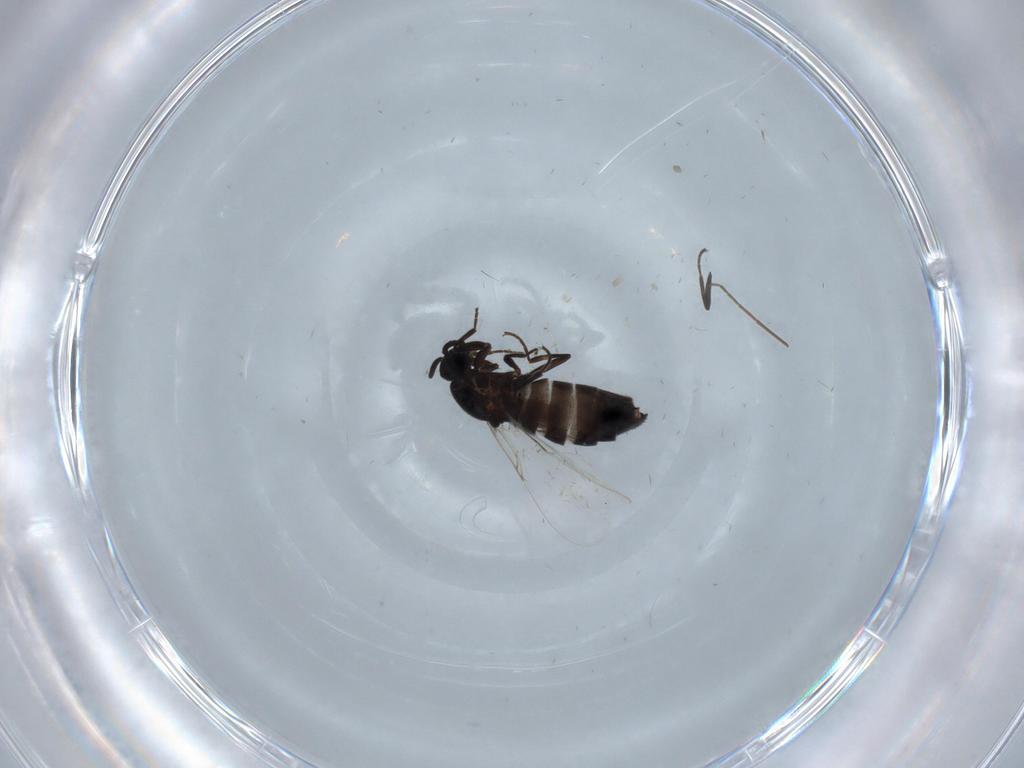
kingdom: Animalia
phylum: Arthropoda
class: Insecta
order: Diptera
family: Scatopsidae
